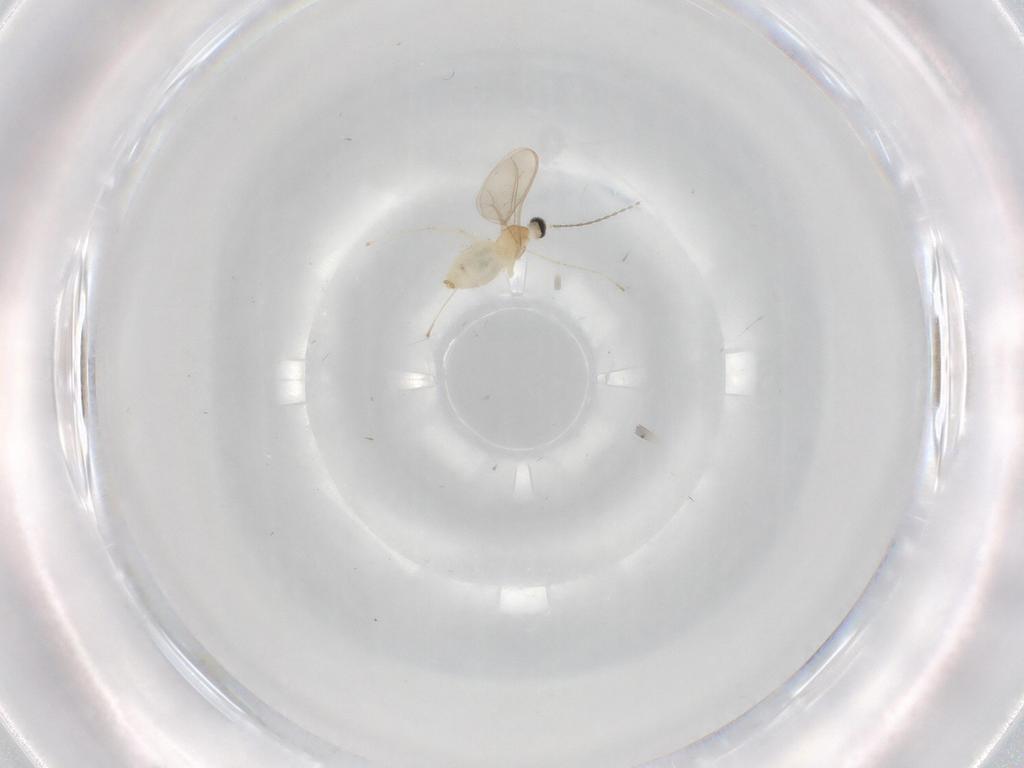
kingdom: Animalia
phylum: Arthropoda
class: Insecta
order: Diptera
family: Cecidomyiidae
